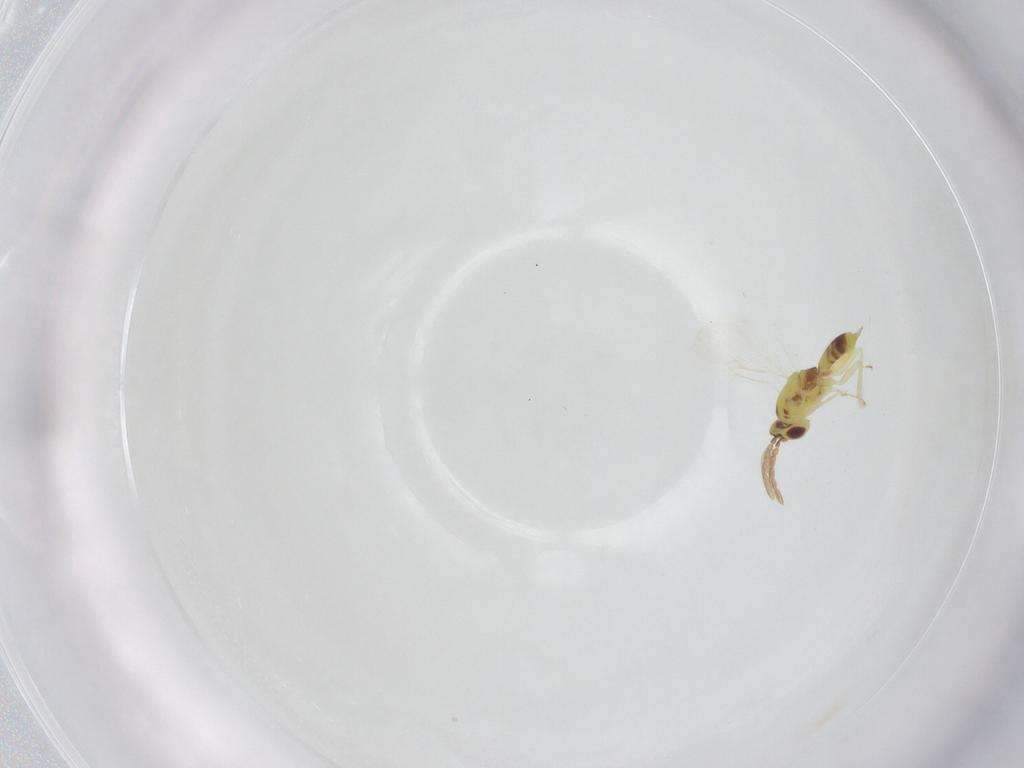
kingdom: Animalia
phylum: Arthropoda
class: Insecta
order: Hymenoptera
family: Eulophidae
